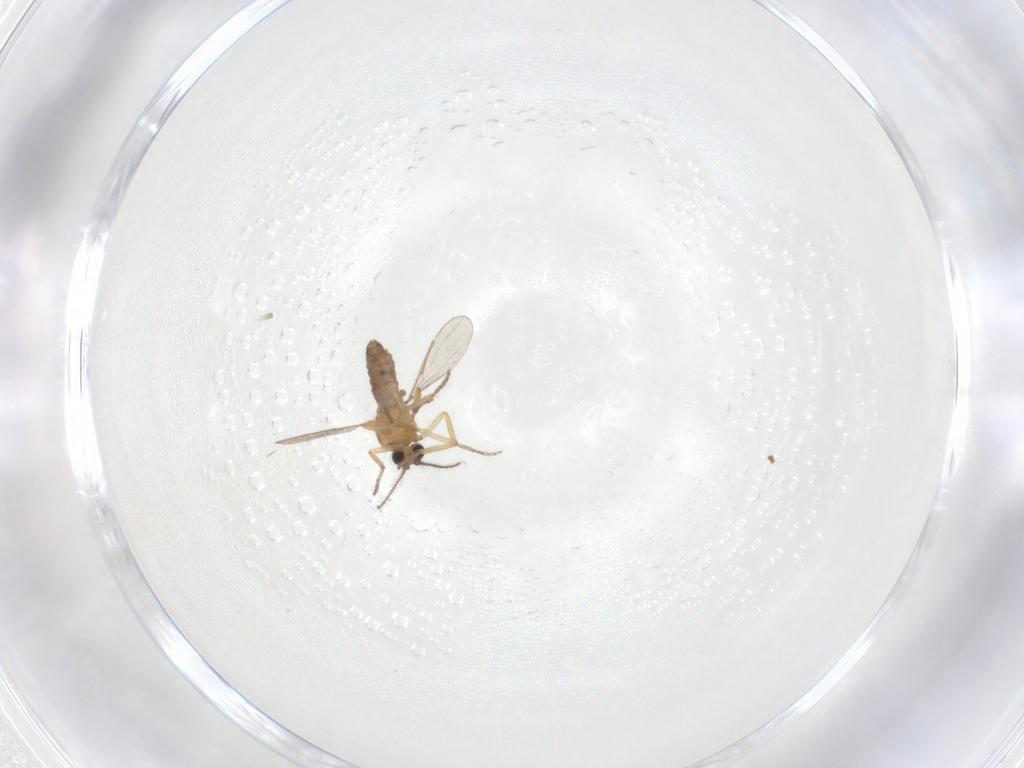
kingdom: Animalia
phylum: Arthropoda
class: Insecta
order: Diptera
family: Ceratopogonidae
